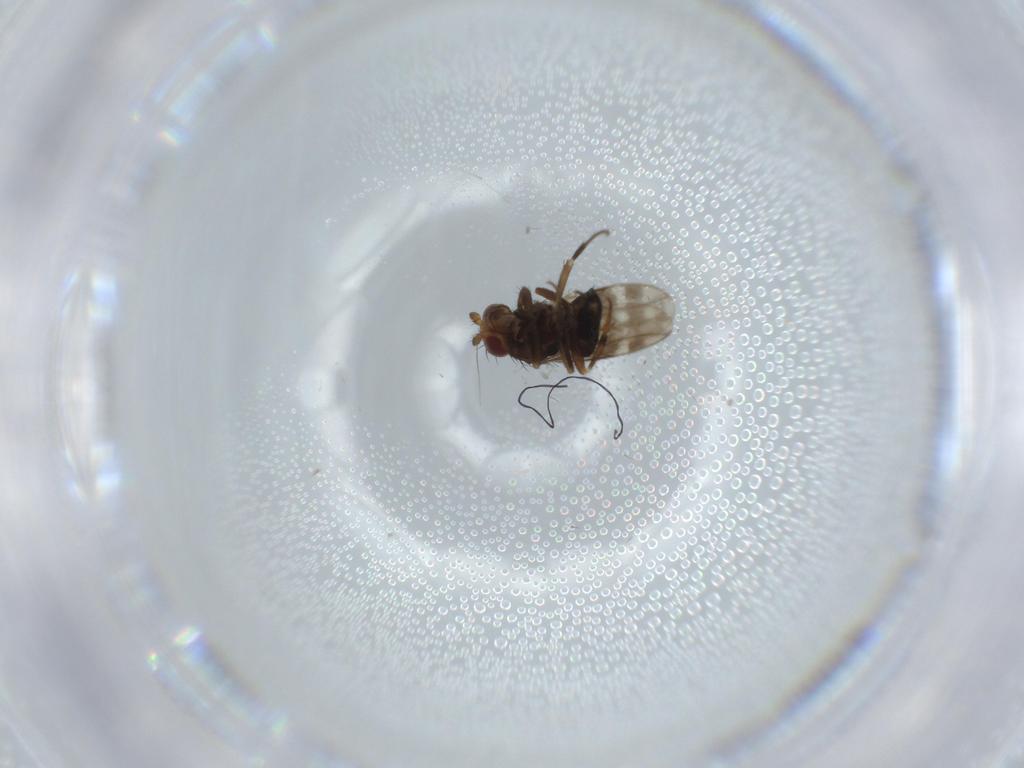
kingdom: Animalia
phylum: Arthropoda
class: Insecta
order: Diptera
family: Sphaeroceridae
